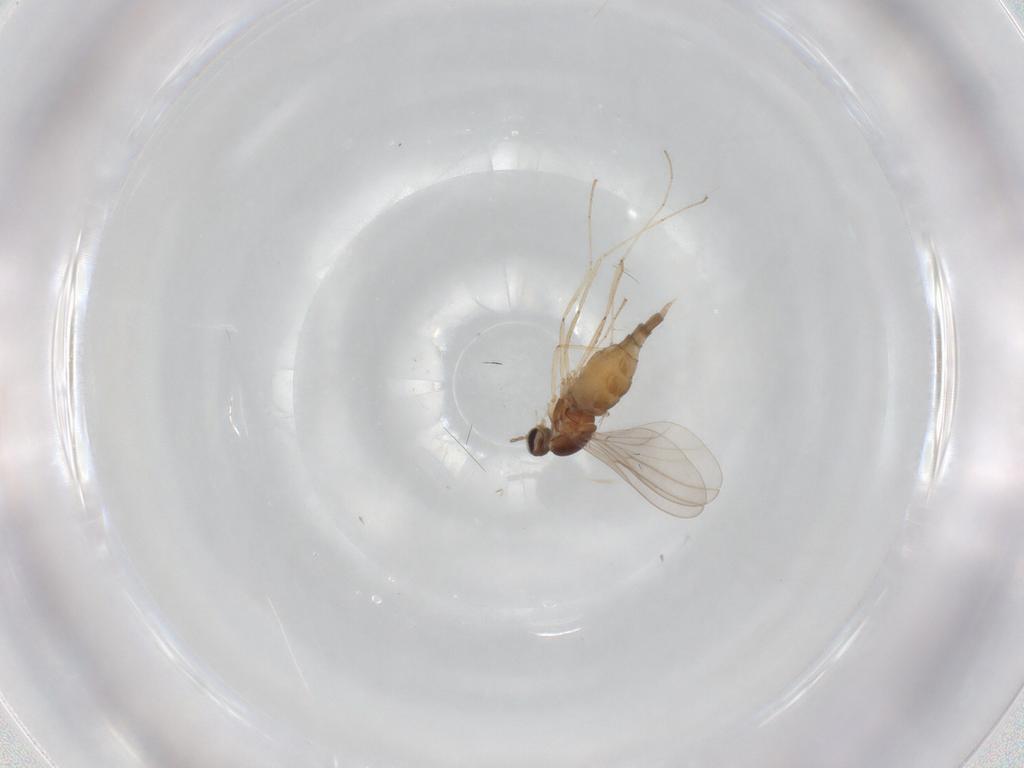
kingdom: Animalia
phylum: Arthropoda
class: Insecta
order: Diptera
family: Cecidomyiidae
